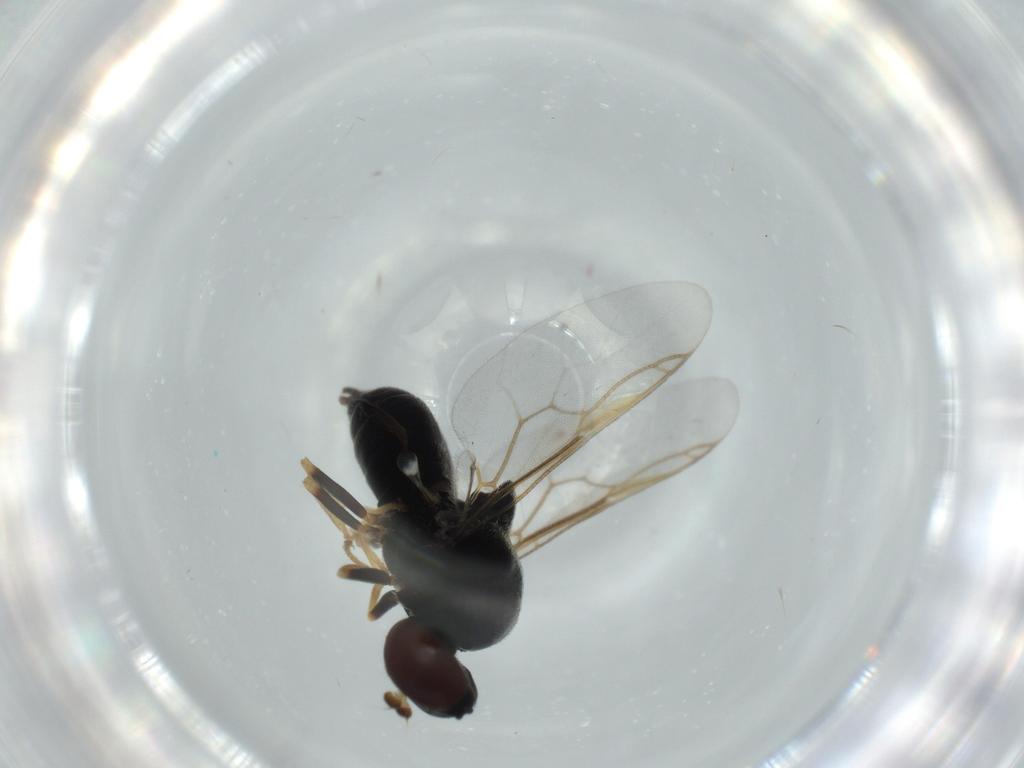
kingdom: Animalia
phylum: Arthropoda
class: Insecta
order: Diptera
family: Stratiomyidae
